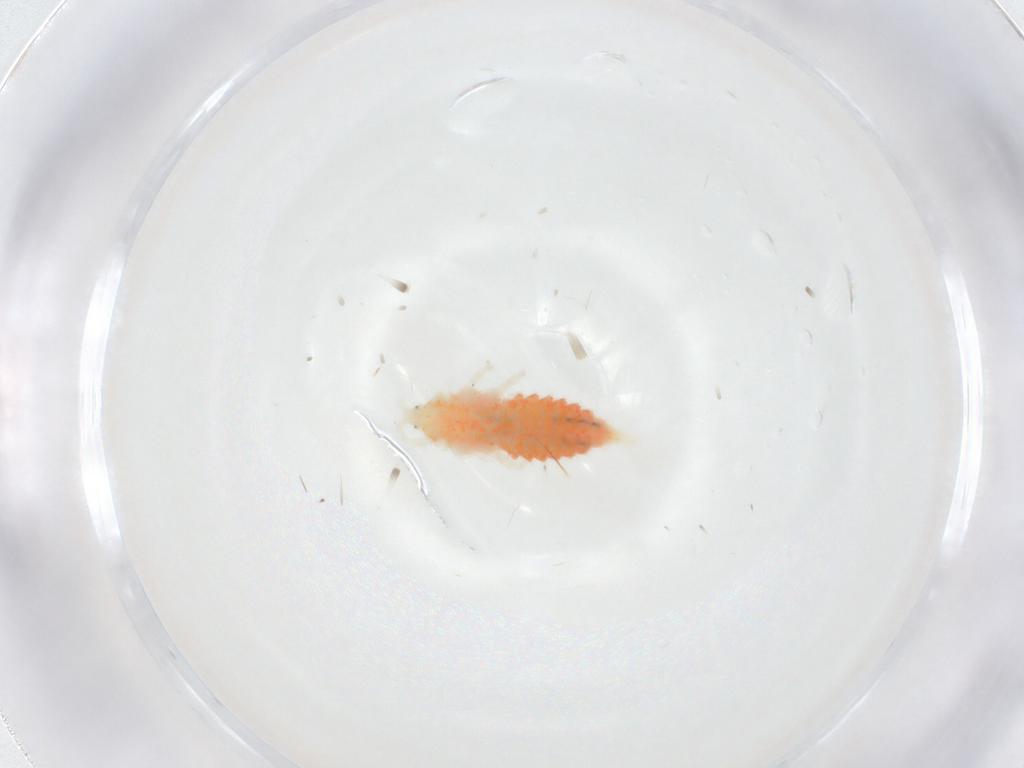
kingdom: Animalia
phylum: Arthropoda
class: Insecta
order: Thysanoptera
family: Phlaeothripidae
